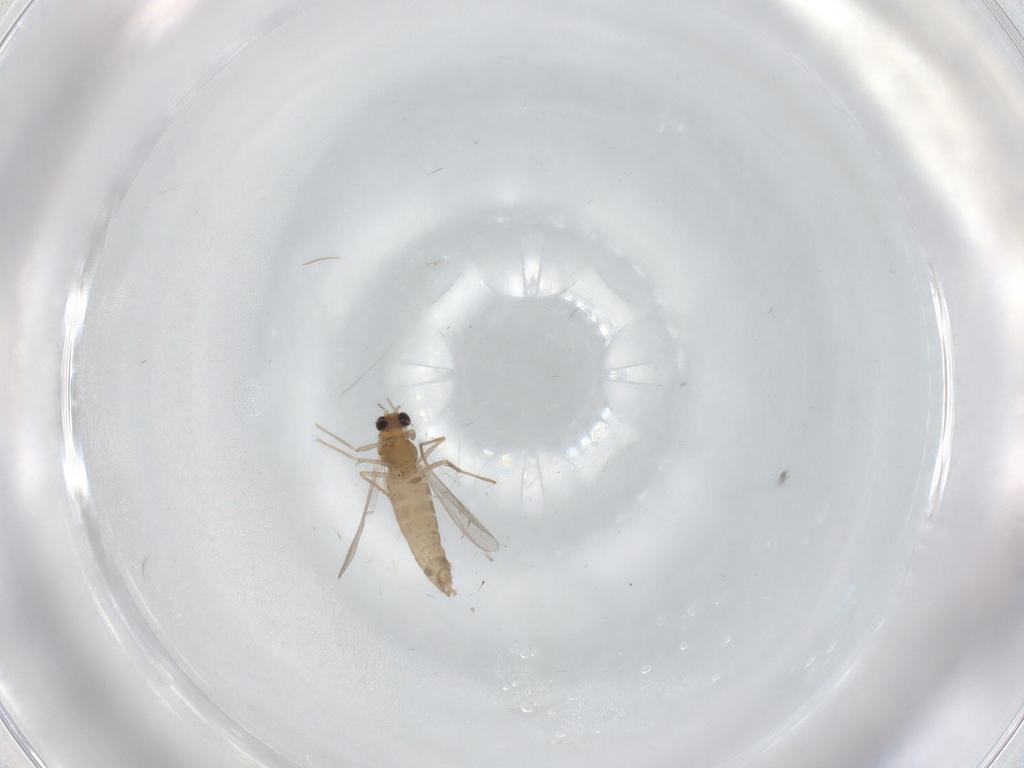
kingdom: Animalia
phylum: Arthropoda
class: Insecta
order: Diptera
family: Chironomidae
